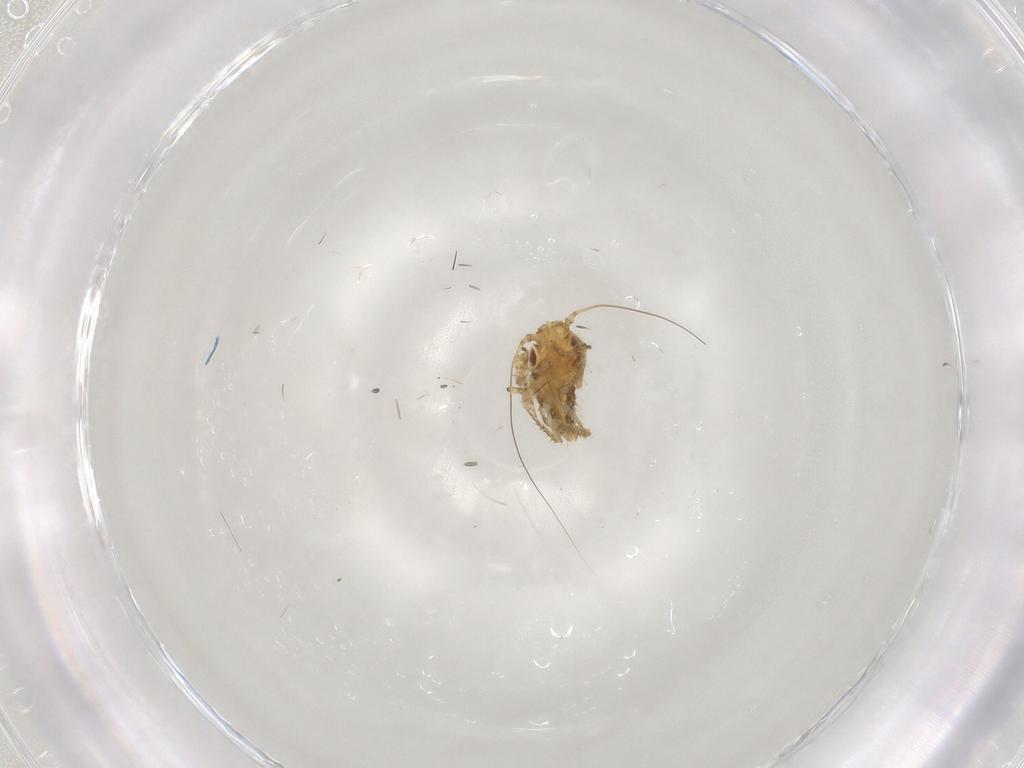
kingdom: Animalia
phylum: Arthropoda
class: Insecta
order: Hemiptera
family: Cicadellidae
